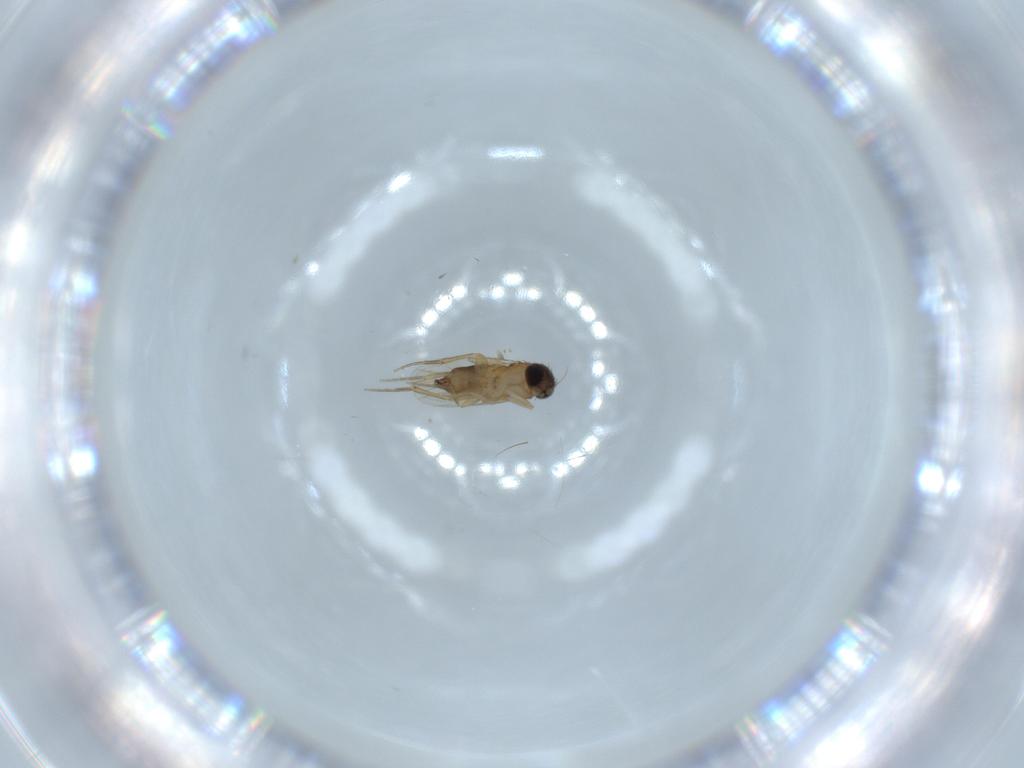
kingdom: Animalia
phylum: Arthropoda
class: Insecta
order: Diptera
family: Phoridae
